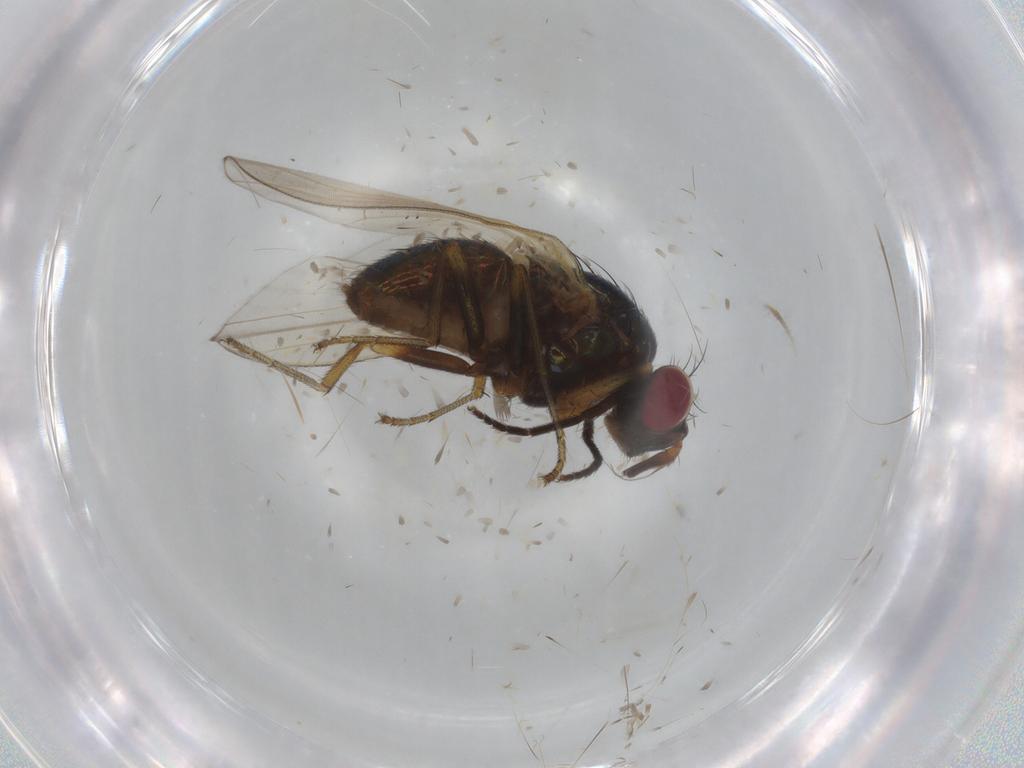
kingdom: Animalia
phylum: Arthropoda
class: Insecta
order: Diptera
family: Lauxaniidae
